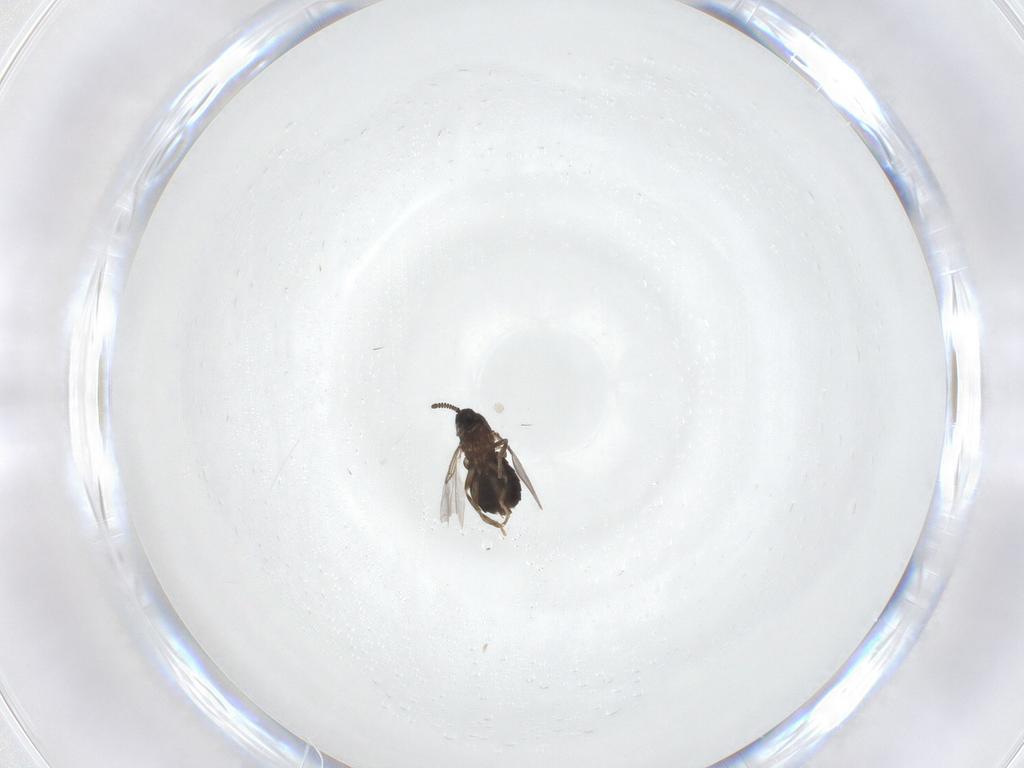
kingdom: Animalia
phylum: Arthropoda
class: Insecta
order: Diptera
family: Scatopsidae
